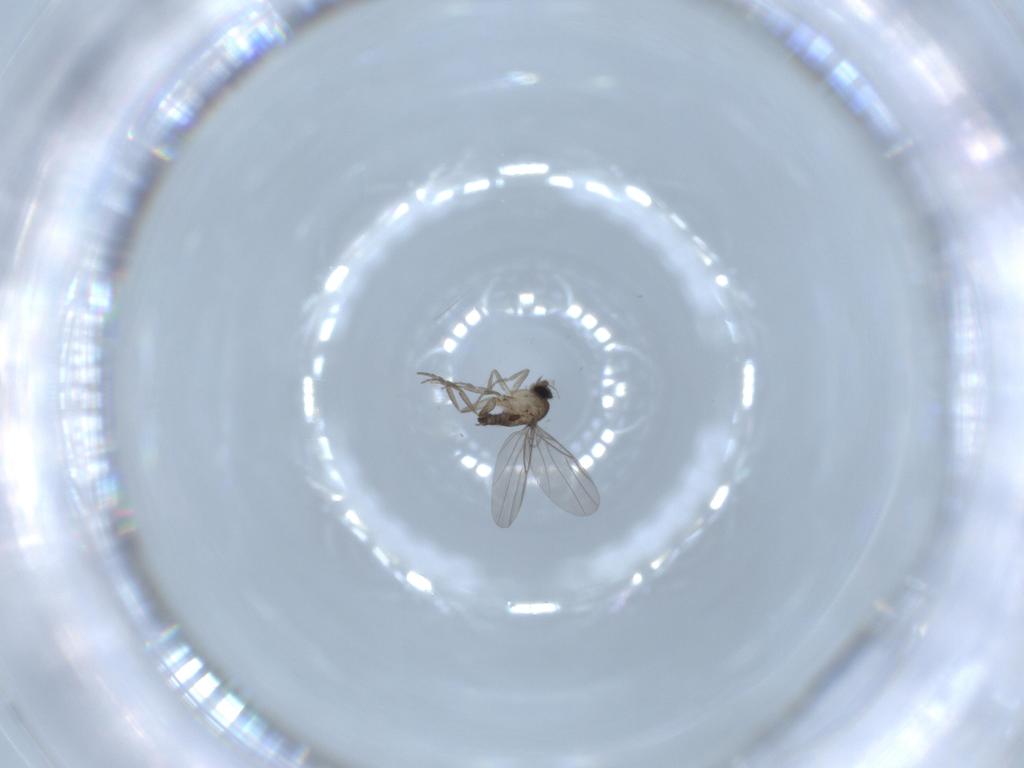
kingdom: Animalia
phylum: Arthropoda
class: Insecta
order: Diptera
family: Phoridae
